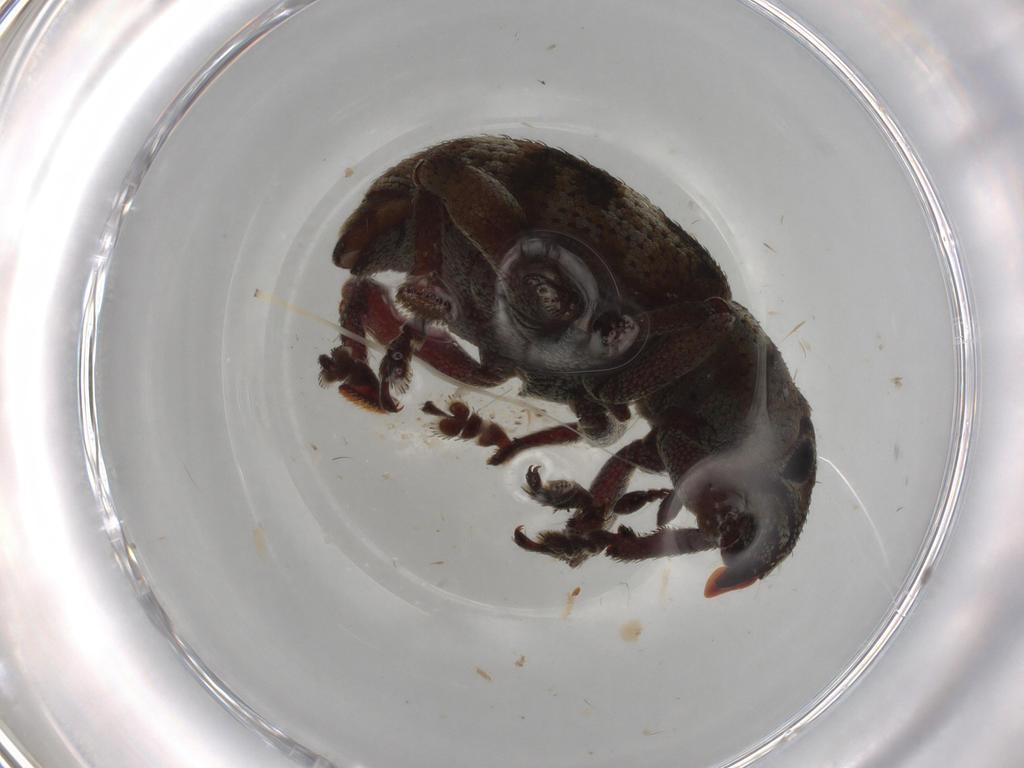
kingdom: Animalia
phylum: Arthropoda
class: Insecta
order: Coleoptera
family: Curculionidae
